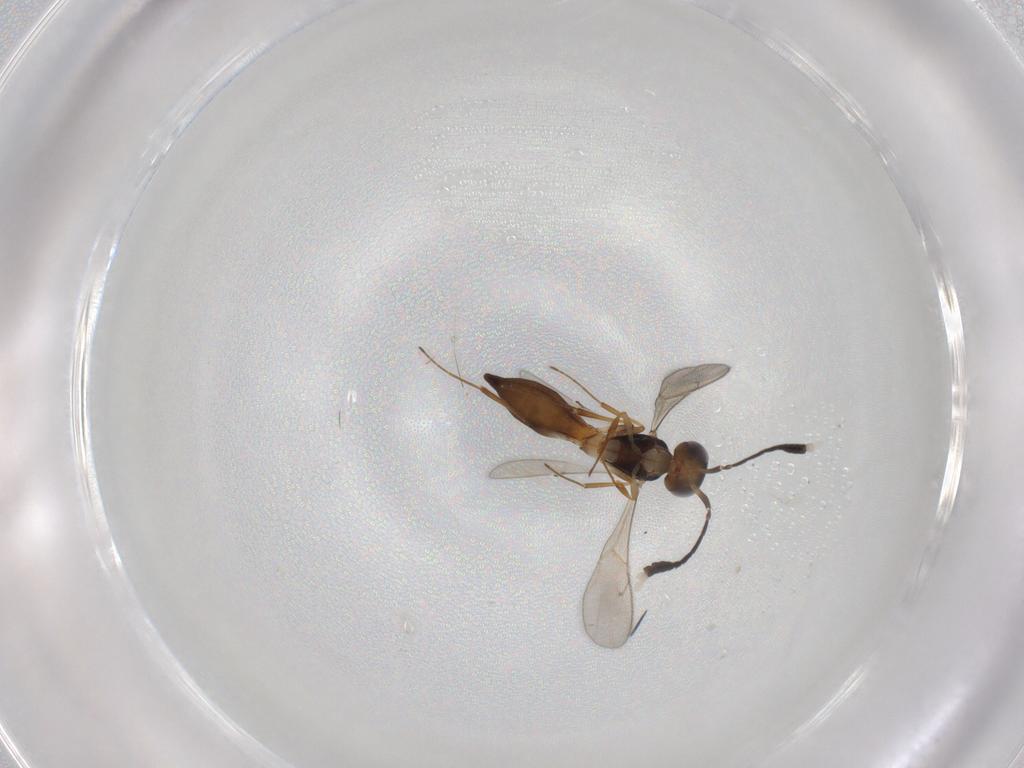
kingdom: Animalia
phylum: Arthropoda
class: Insecta
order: Hymenoptera
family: Scelionidae
